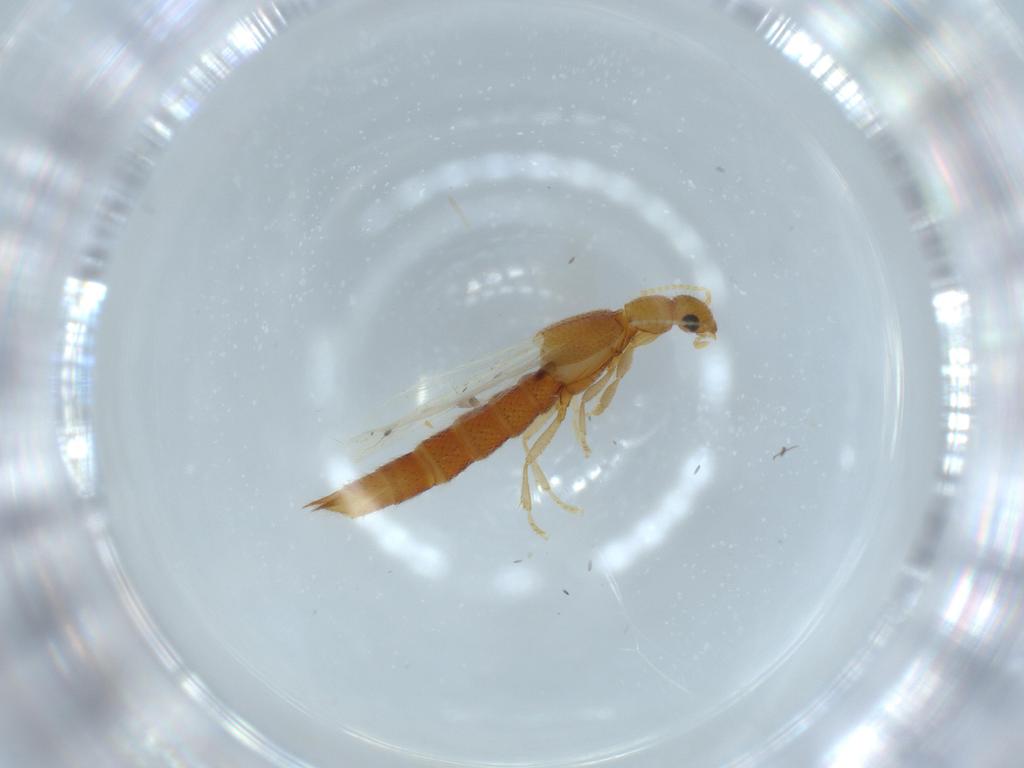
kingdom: Animalia
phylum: Arthropoda
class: Insecta
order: Coleoptera
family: Staphylinidae
